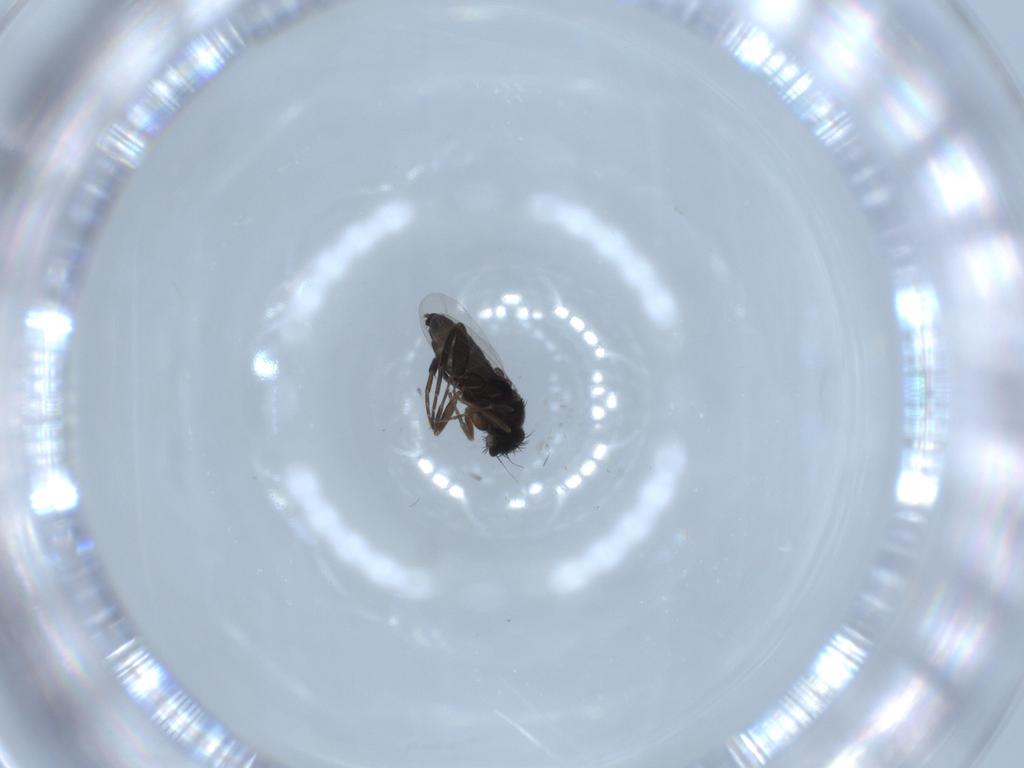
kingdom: Animalia
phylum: Arthropoda
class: Insecta
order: Diptera
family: Cecidomyiidae
